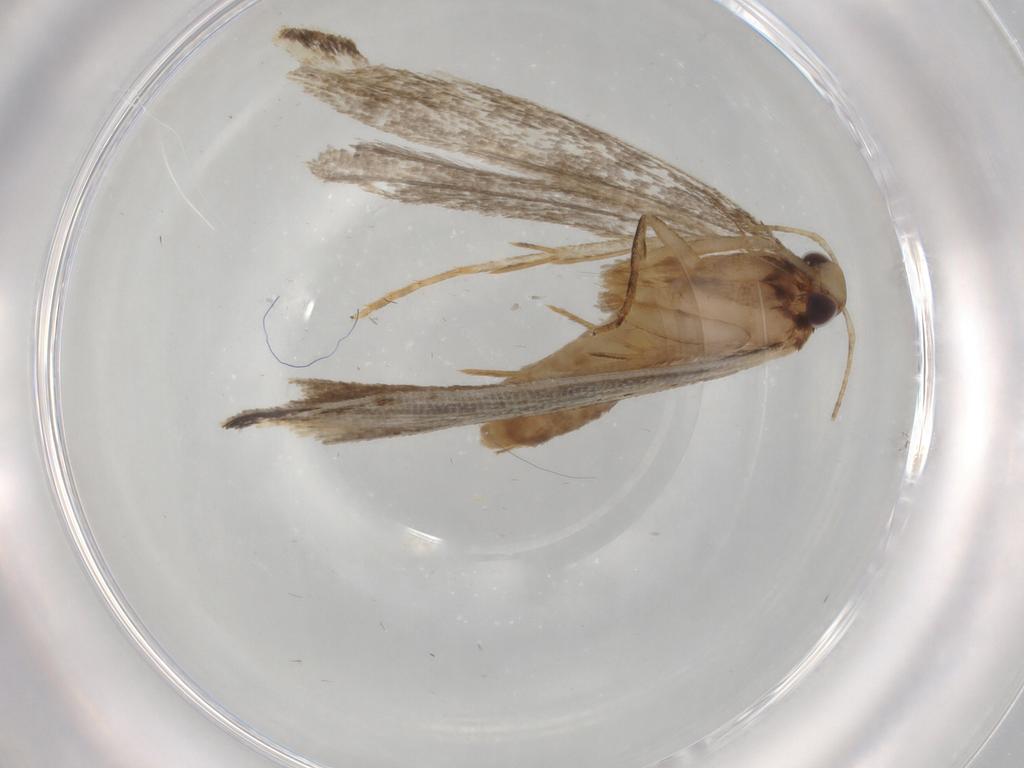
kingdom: Animalia
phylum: Arthropoda
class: Insecta
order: Lepidoptera
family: Gelechiidae
